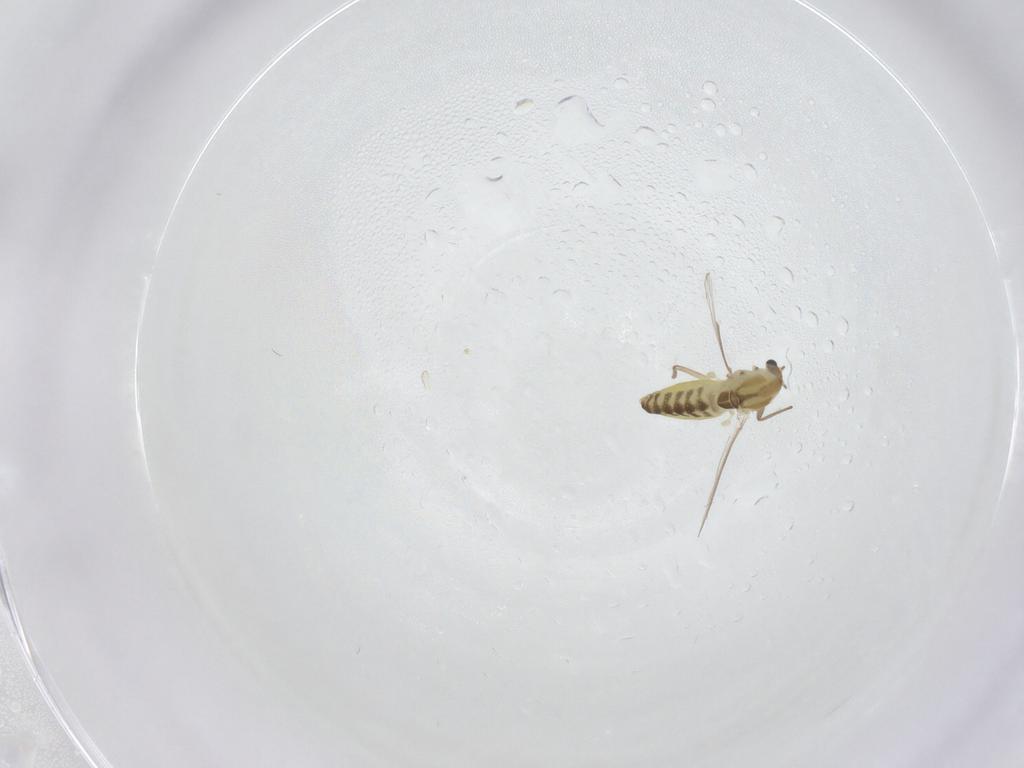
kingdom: Animalia
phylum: Arthropoda
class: Insecta
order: Diptera
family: Chironomidae
